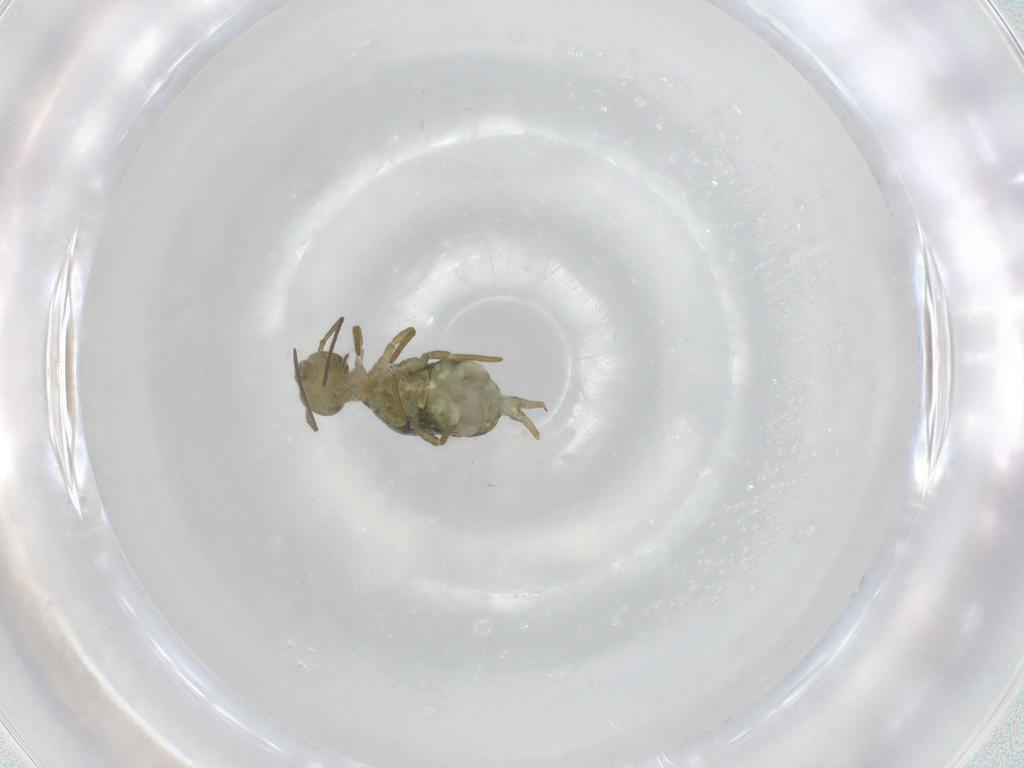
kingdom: Animalia
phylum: Arthropoda
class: Collembola
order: Symphypleona
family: Sminthuridae
